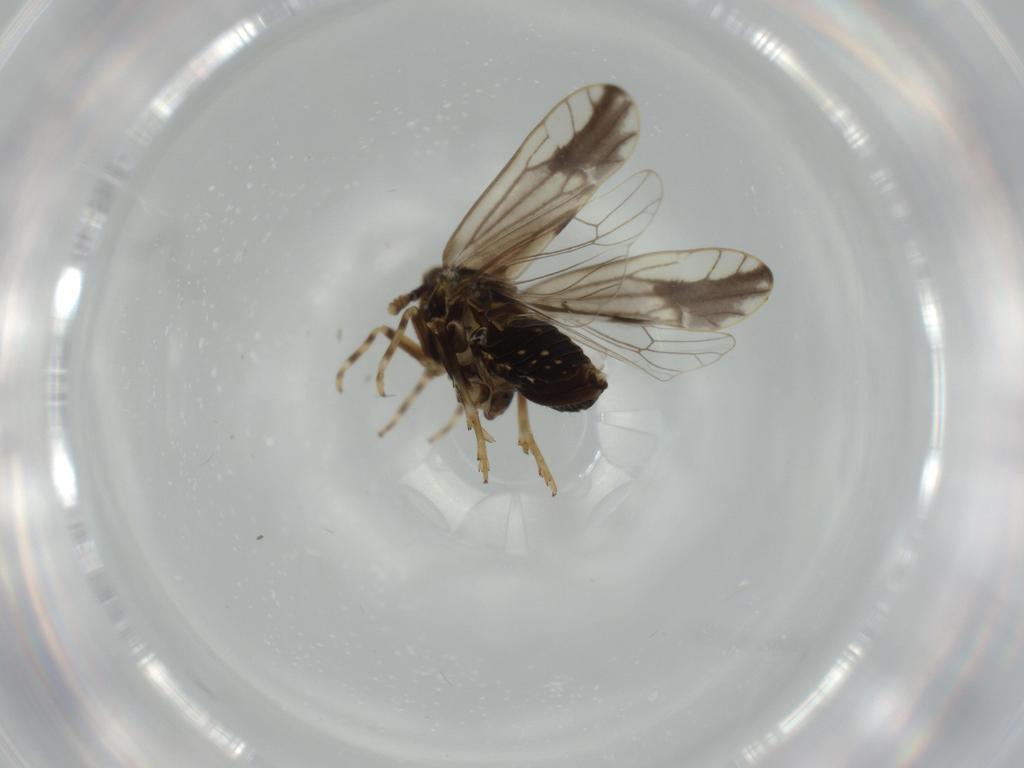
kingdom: Animalia
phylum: Arthropoda
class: Insecta
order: Hemiptera
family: Delphacidae
